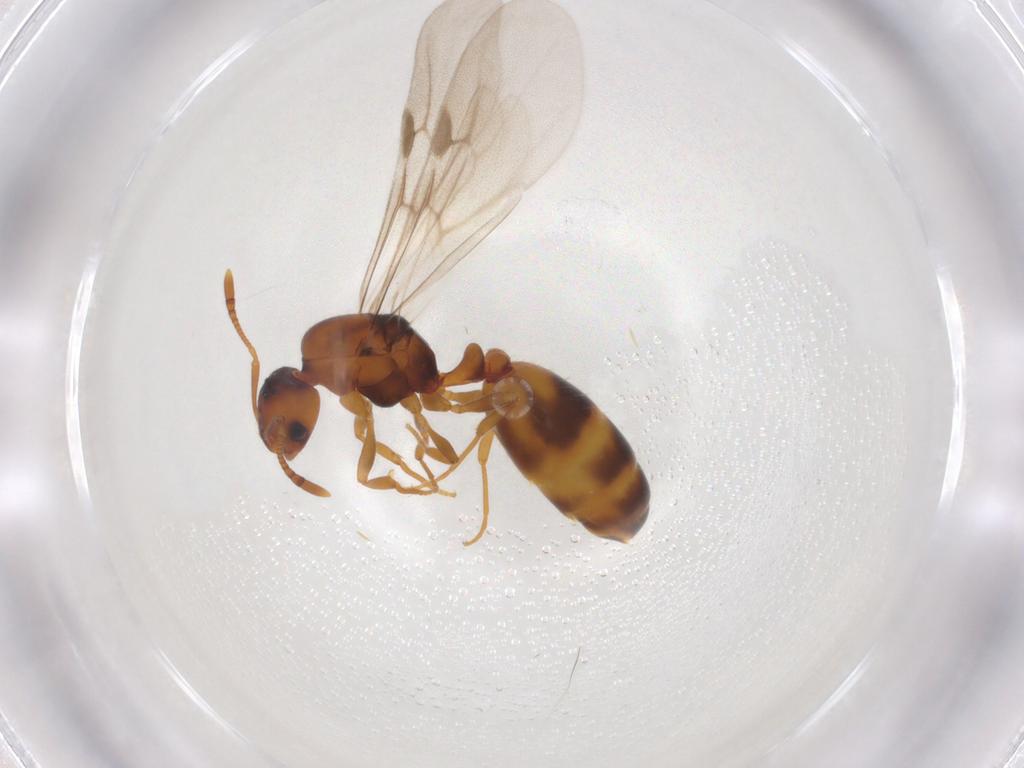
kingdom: Animalia
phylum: Arthropoda
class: Insecta
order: Hymenoptera
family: Formicidae
